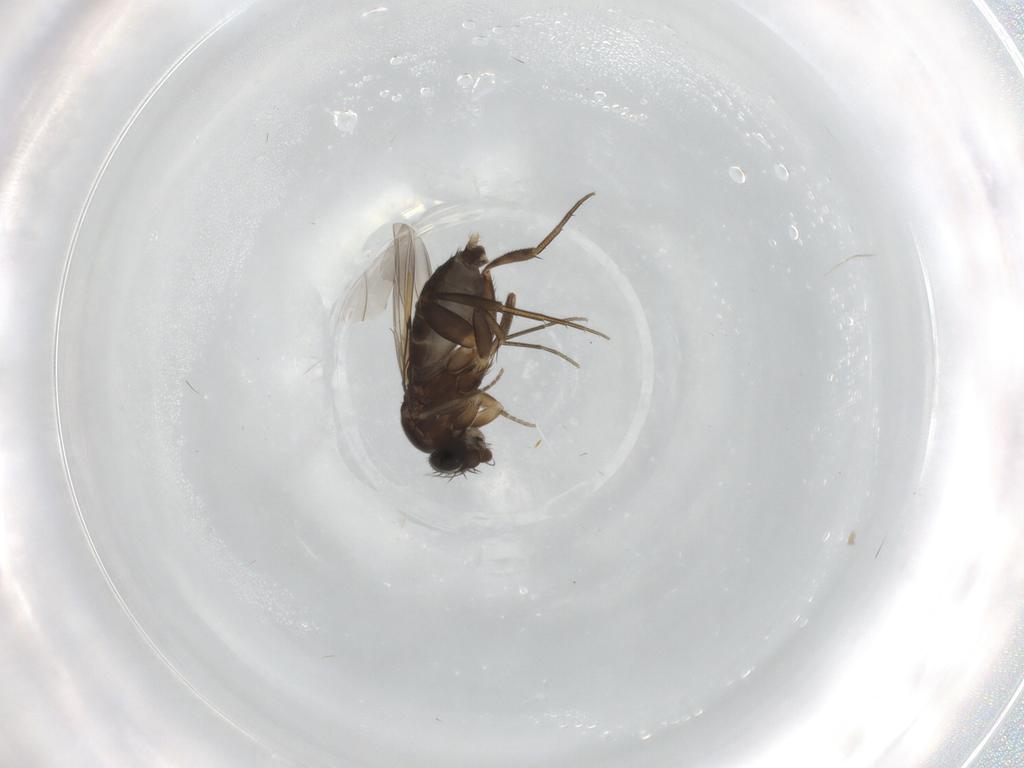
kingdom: Animalia
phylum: Arthropoda
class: Insecta
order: Diptera
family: Phoridae
